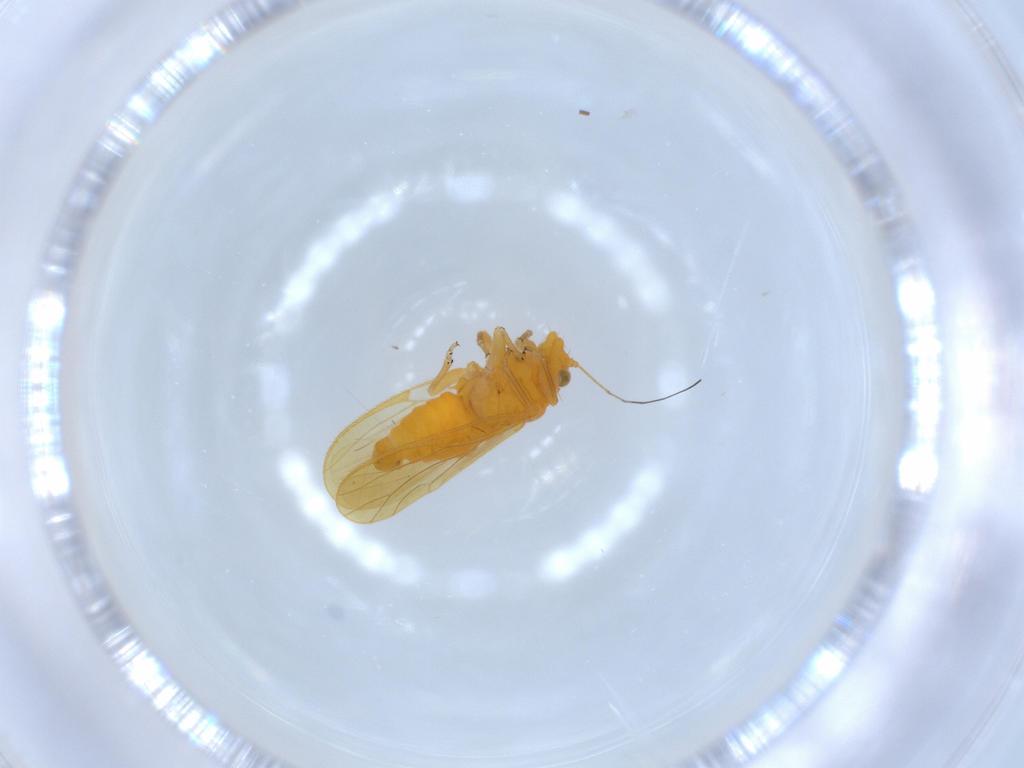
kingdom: Animalia
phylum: Arthropoda
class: Insecta
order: Hemiptera
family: Psyllidae
